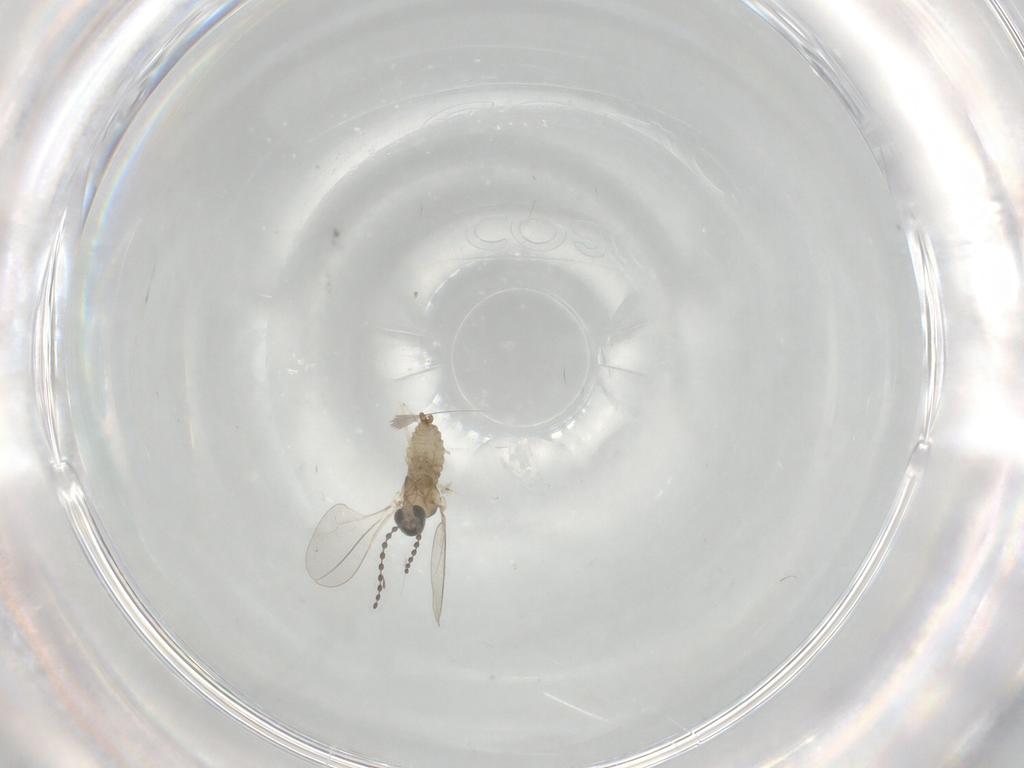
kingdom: Animalia
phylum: Arthropoda
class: Insecta
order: Diptera
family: Cecidomyiidae
